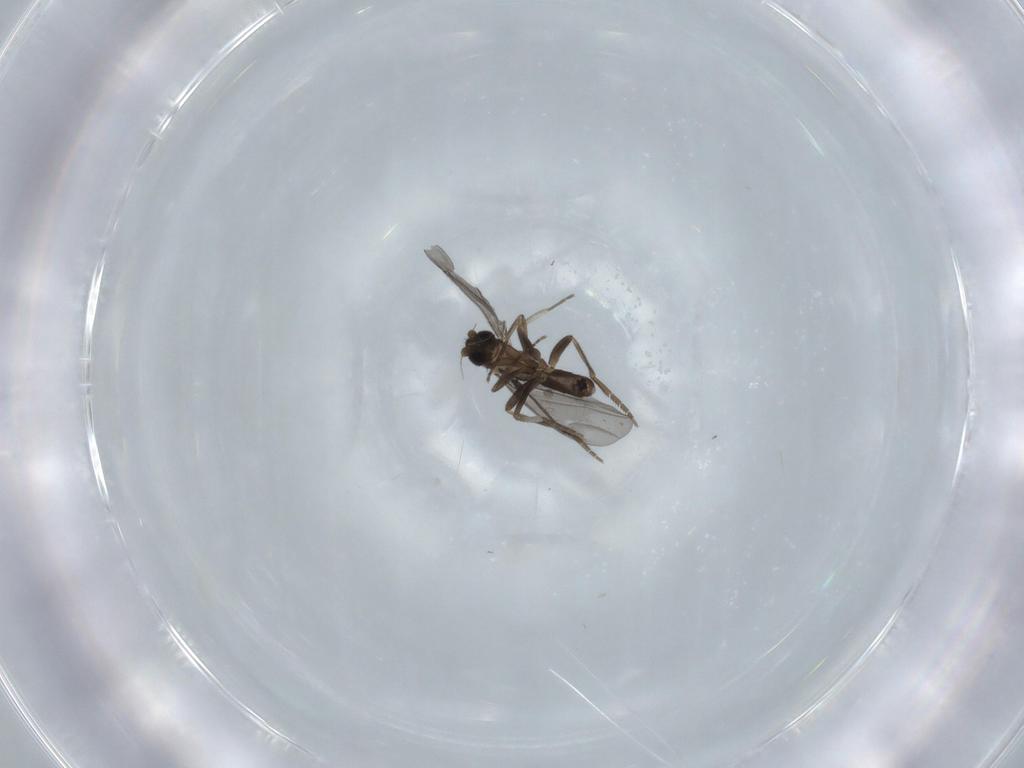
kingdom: Animalia
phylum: Arthropoda
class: Insecta
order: Diptera
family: Phoridae
